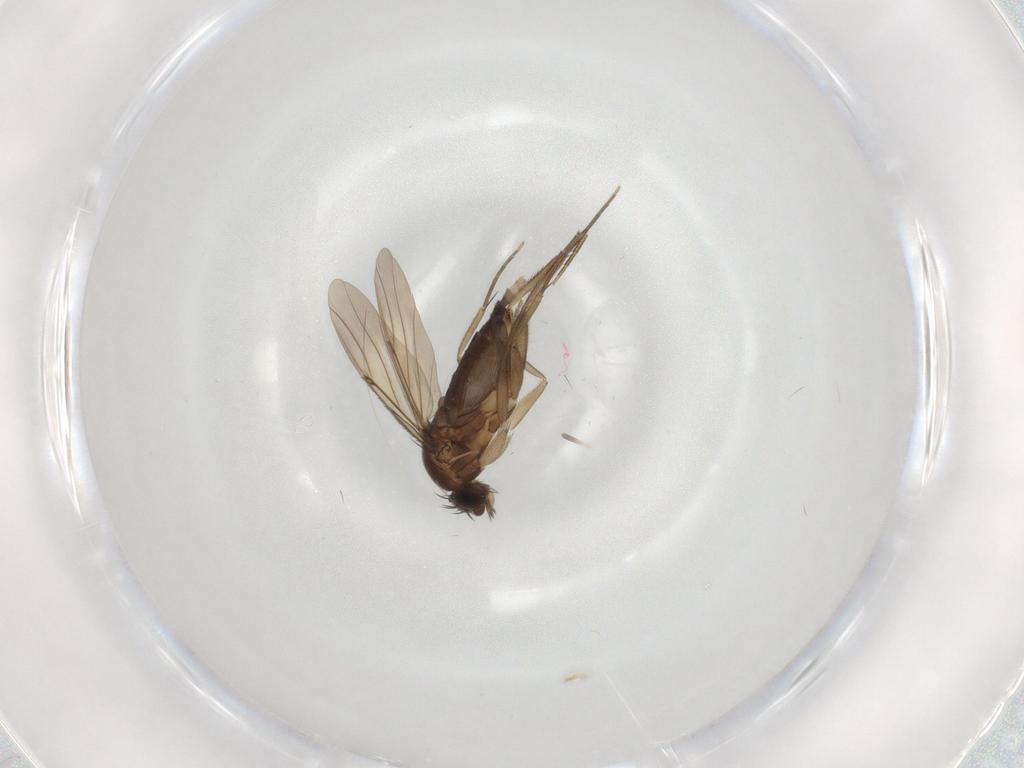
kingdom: Animalia
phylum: Arthropoda
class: Insecta
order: Diptera
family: Phoridae
